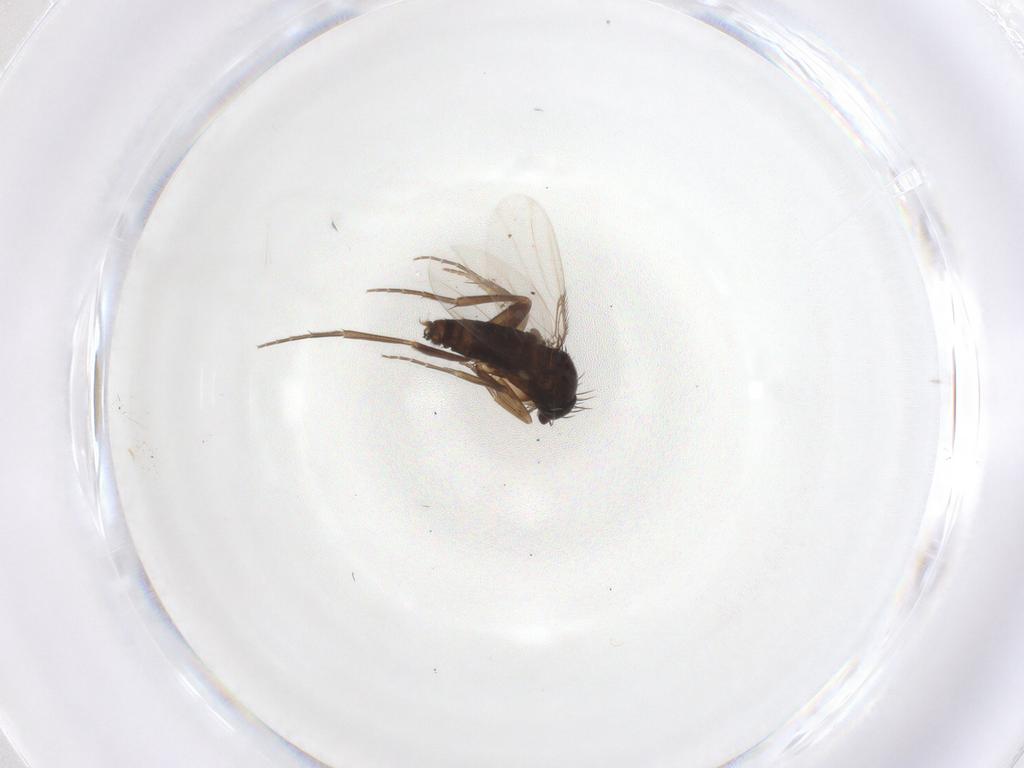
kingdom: Animalia
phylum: Arthropoda
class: Insecta
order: Diptera
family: Phoridae
